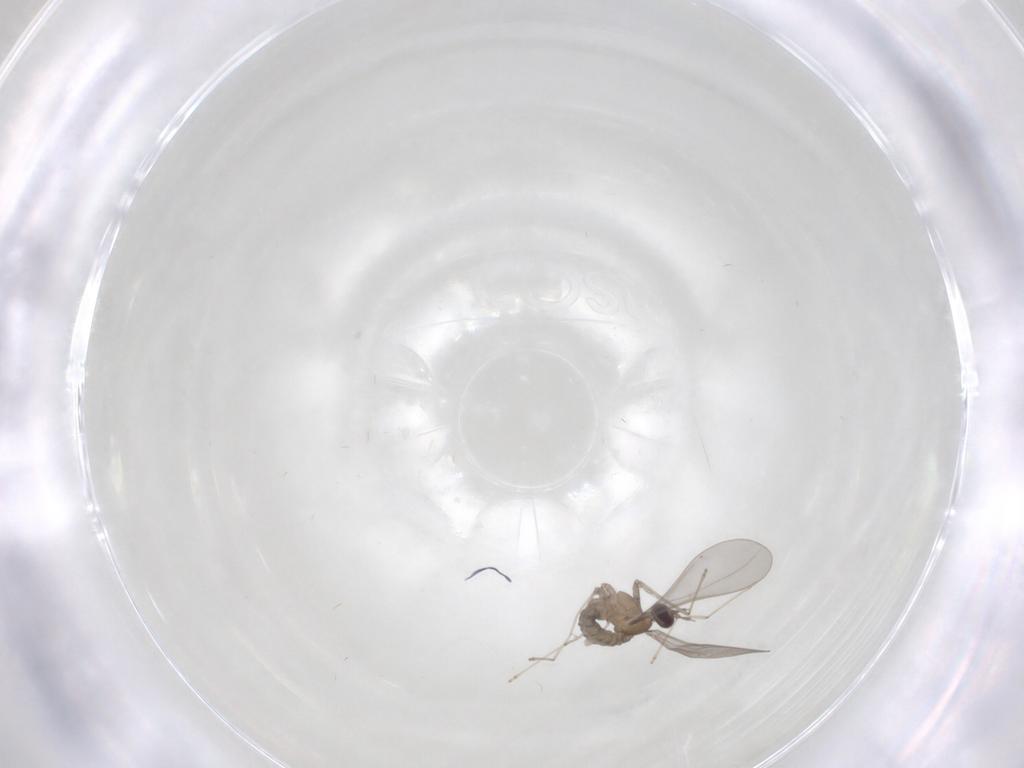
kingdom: Animalia
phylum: Arthropoda
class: Insecta
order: Diptera
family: Cecidomyiidae
